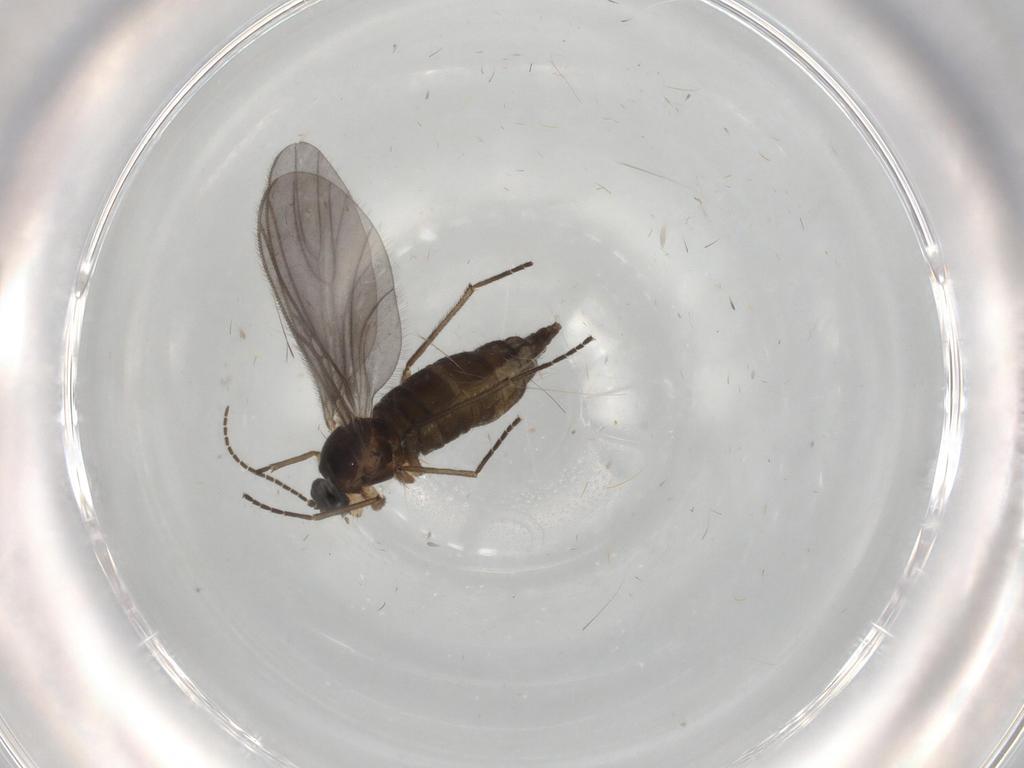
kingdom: Animalia
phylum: Arthropoda
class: Insecta
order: Diptera
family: Sciaridae
